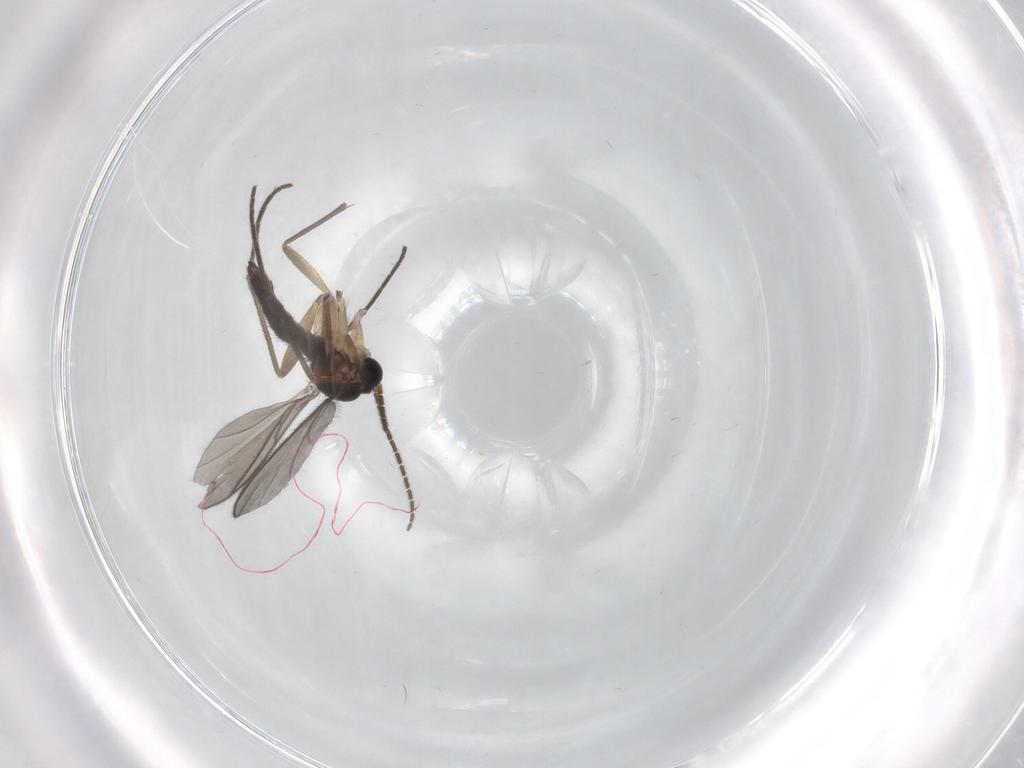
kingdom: Animalia
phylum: Arthropoda
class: Insecta
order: Diptera
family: Sciaridae
